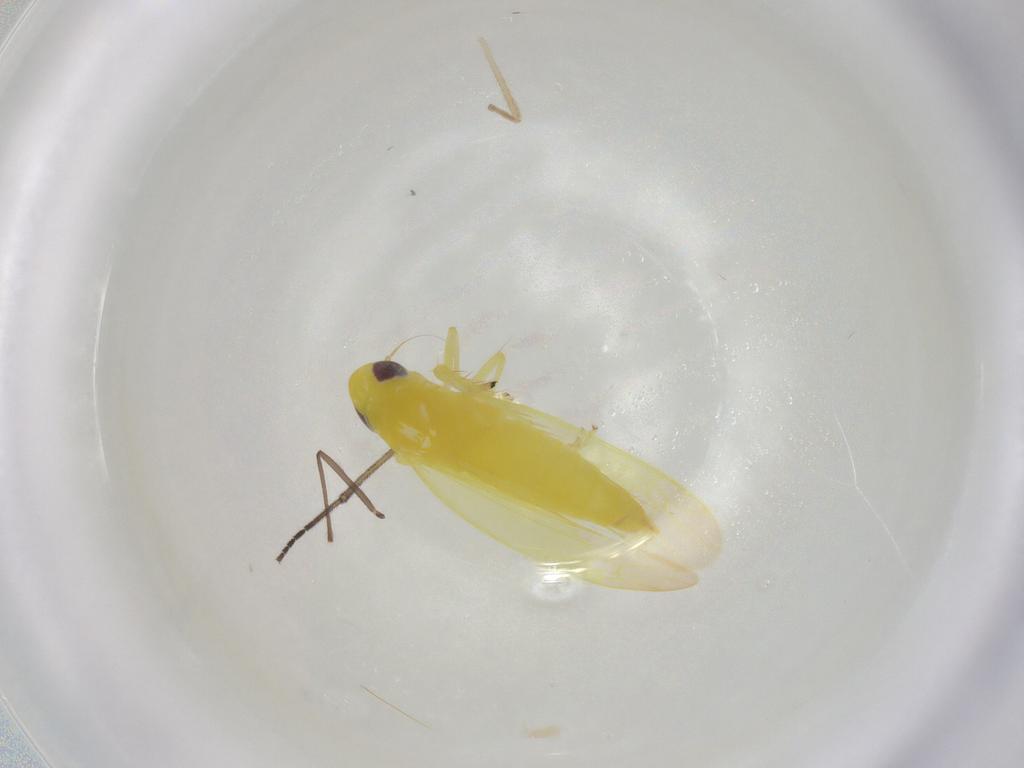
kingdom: Animalia
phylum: Arthropoda
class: Insecta
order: Hemiptera
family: Cicadellidae
